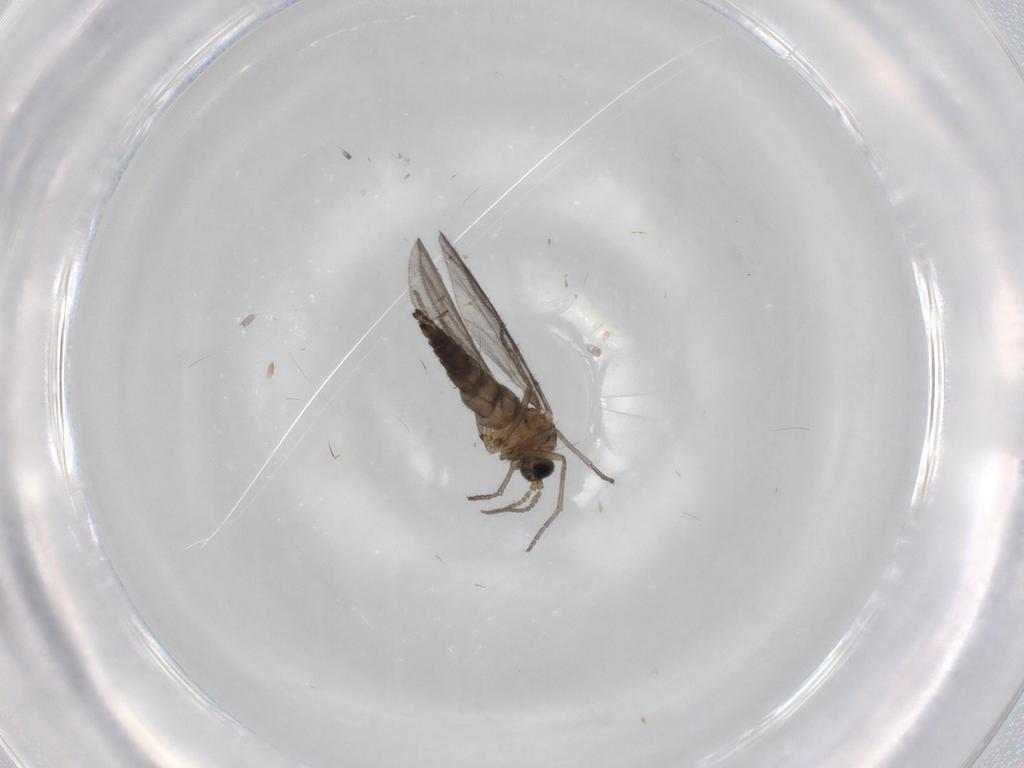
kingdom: Animalia
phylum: Arthropoda
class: Insecta
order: Diptera
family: Sciaridae
